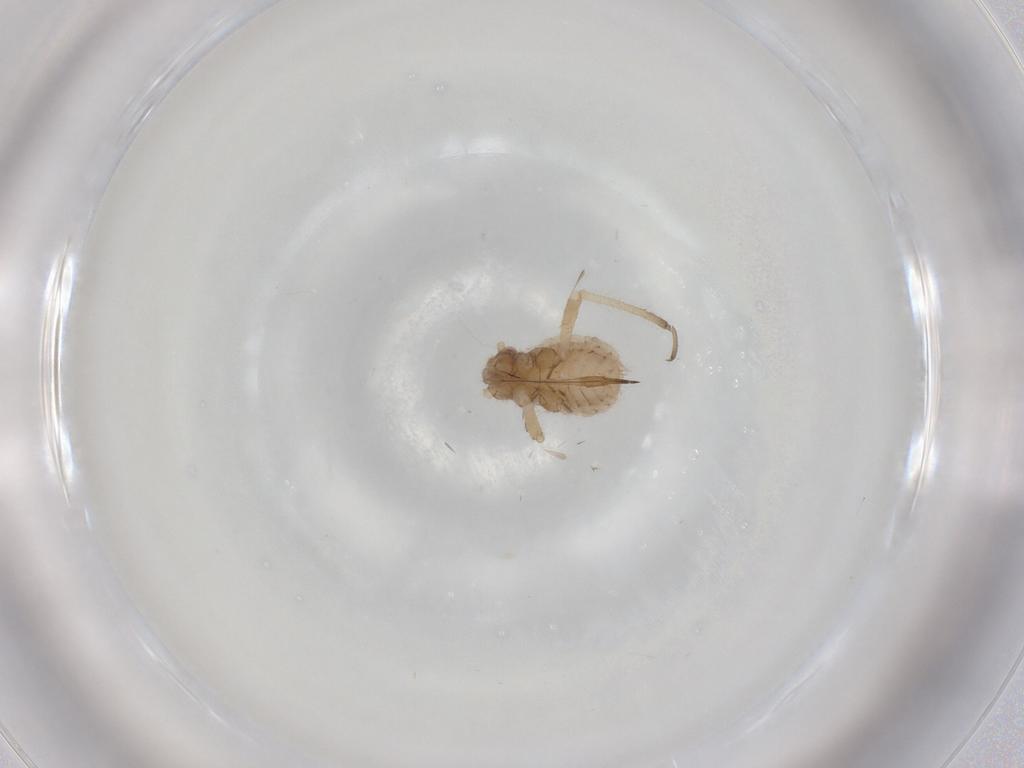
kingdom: Animalia
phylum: Arthropoda
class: Insecta
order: Hemiptera
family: Aphididae
